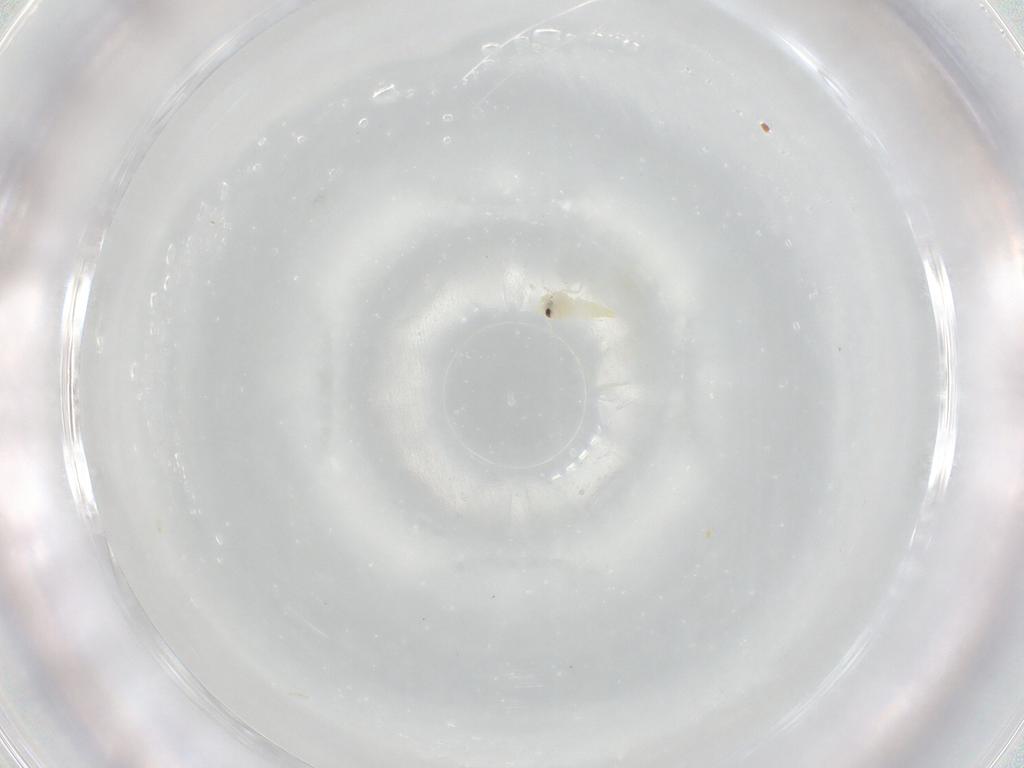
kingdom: Animalia
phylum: Arthropoda
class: Insecta
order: Hemiptera
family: Aleyrodidae
